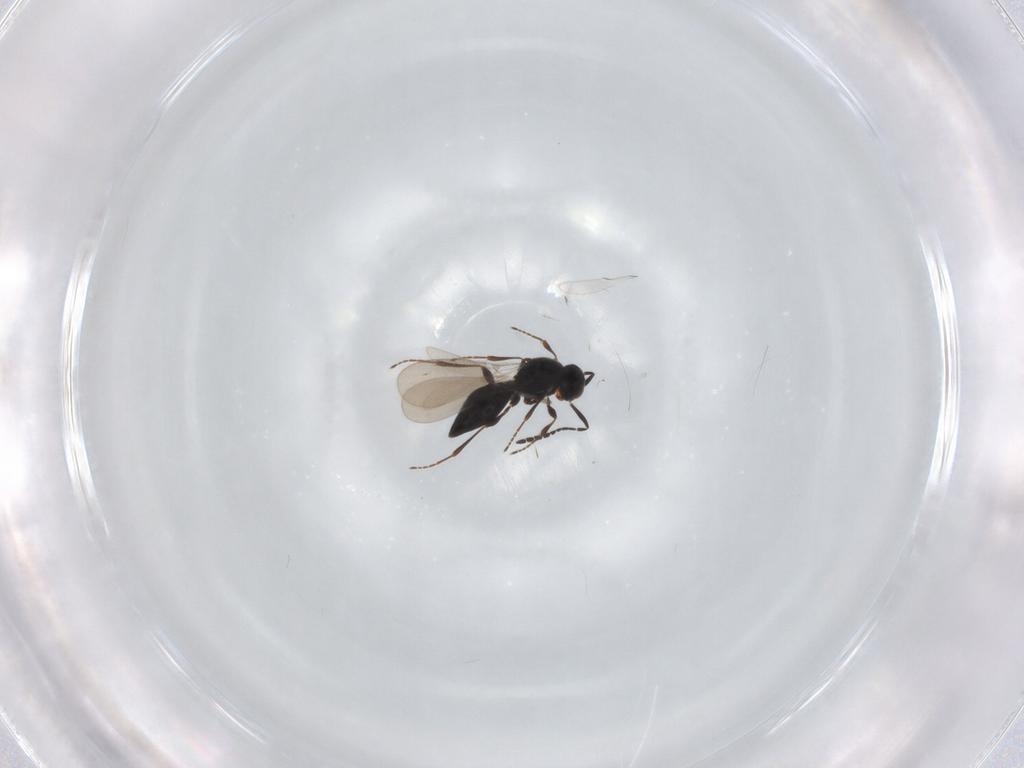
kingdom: Animalia
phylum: Arthropoda
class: Insecta
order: Hymenoptera
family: Platygastridae
